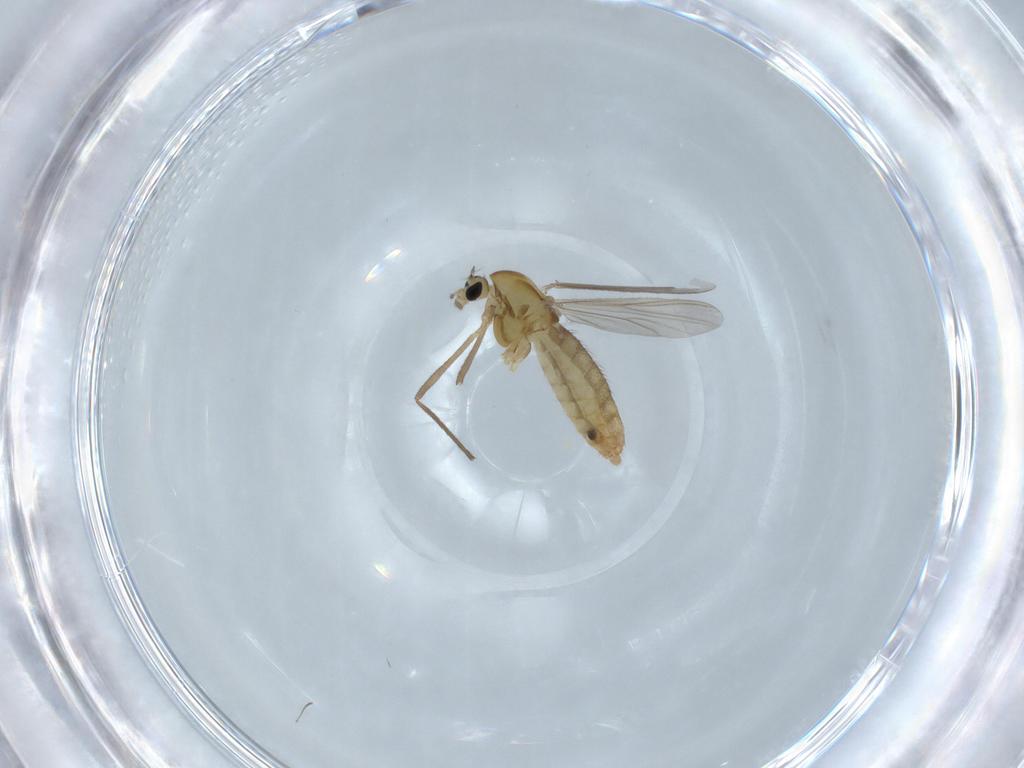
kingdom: Animalia
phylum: Arthropoda
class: Insecta
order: Diptera
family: Chironomidae
